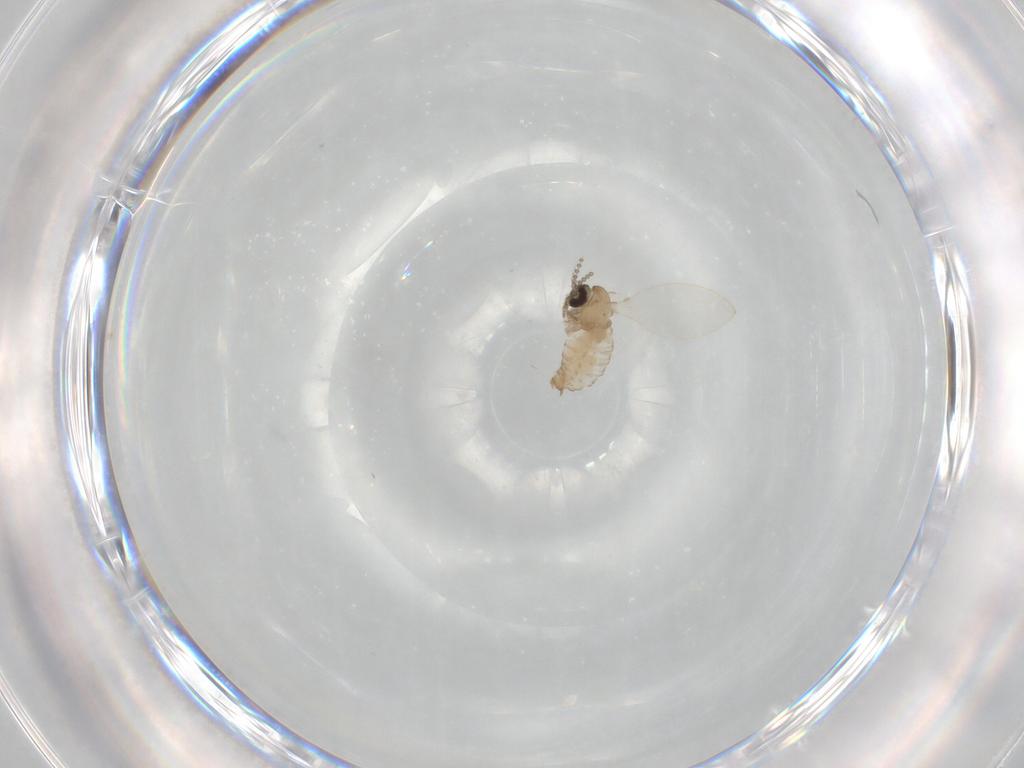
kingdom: Animalia
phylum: Arthropoda
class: Insecta
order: Diptera
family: Psychodidae
